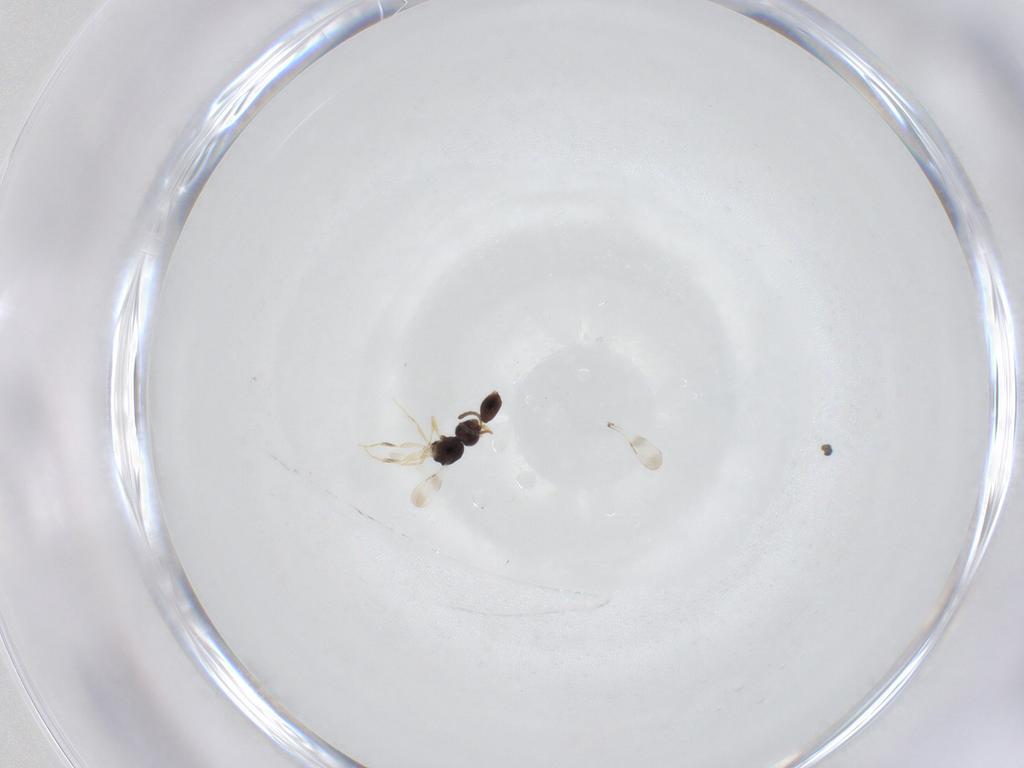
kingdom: Animalia
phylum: Arthropoda
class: Insecta
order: Hymenoptera
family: Ceraphronidae
